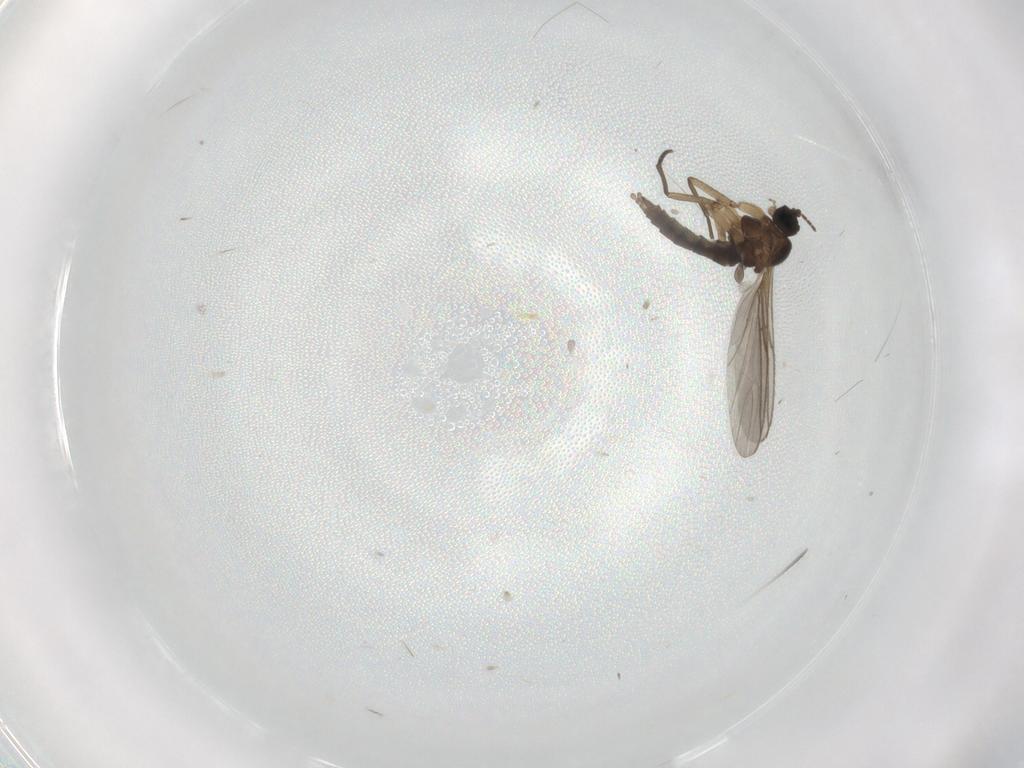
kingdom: Animalia
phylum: Arthropoda
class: Insecta
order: Diptera
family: Sciaridae
